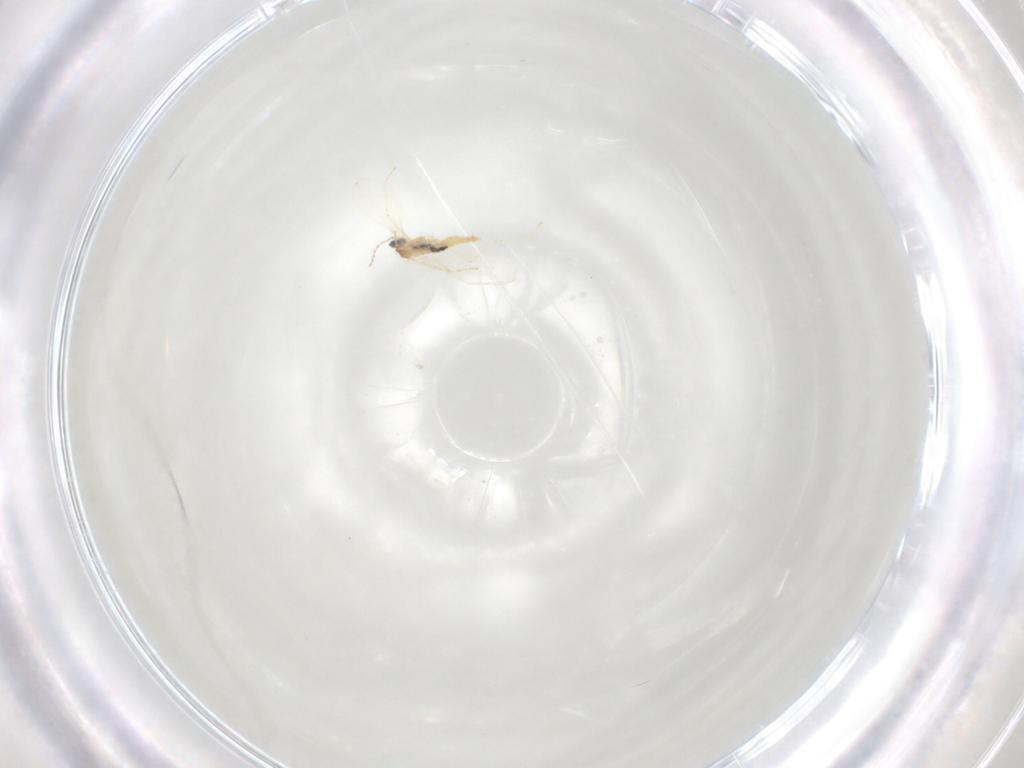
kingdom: Animalia
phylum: Arthropoda
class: Insecta
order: Diptera
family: Cecidomyiidae
